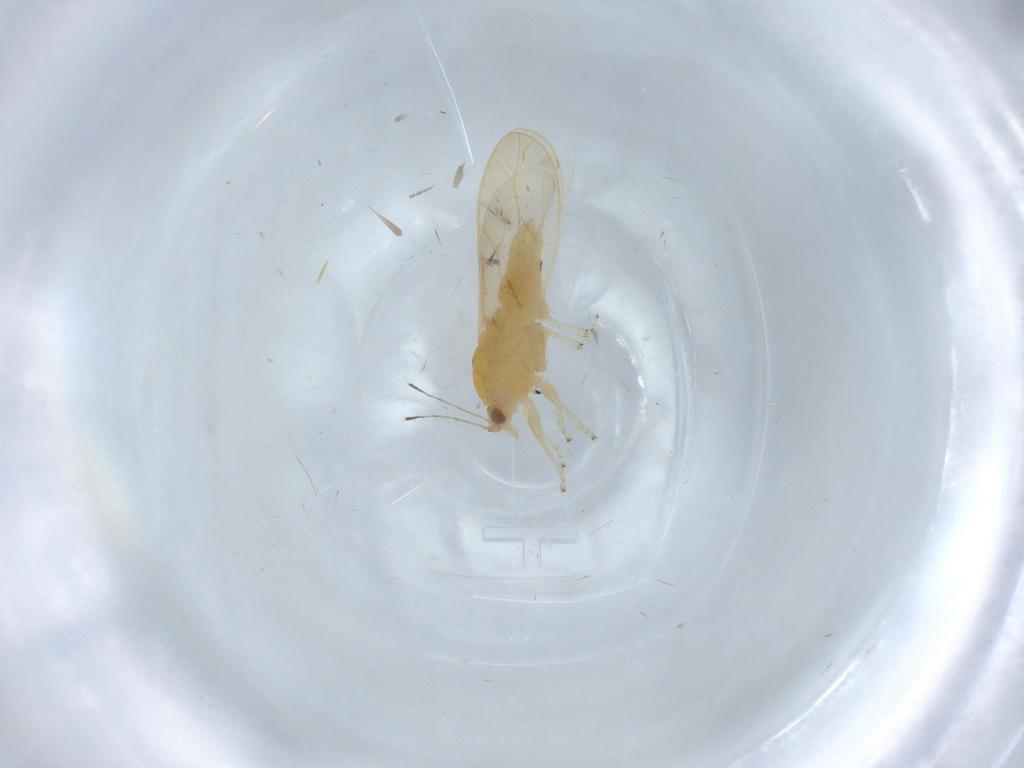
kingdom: Animalia
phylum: Arthropoda
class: Insecta
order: Hemiptera
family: Triozidae
